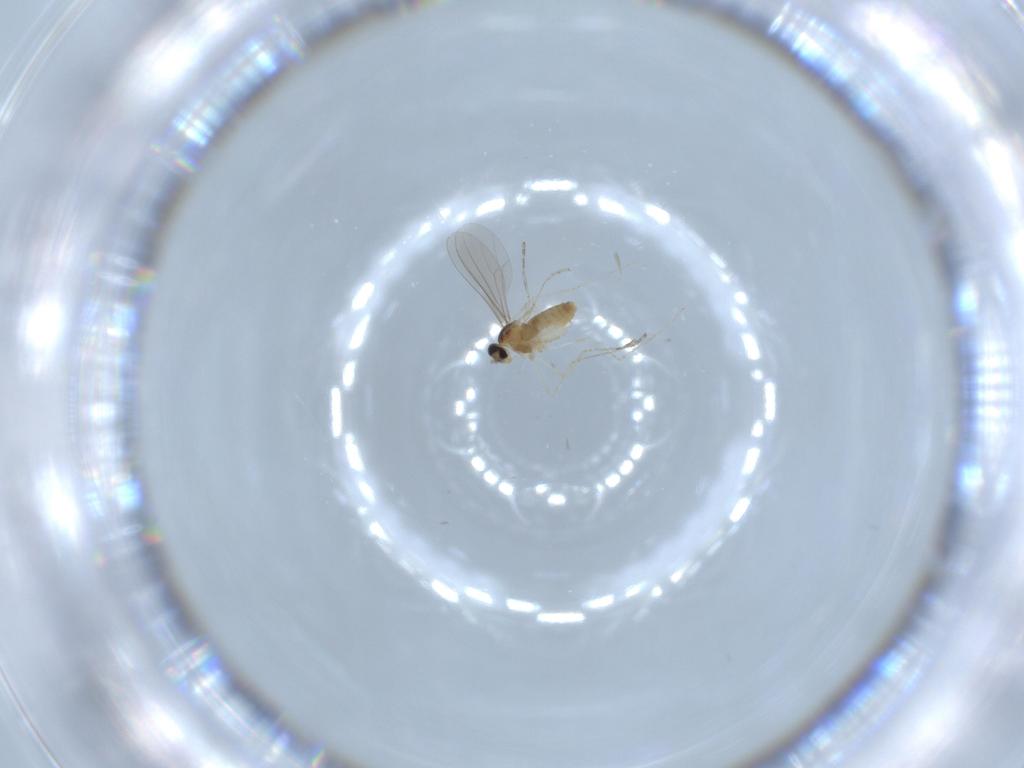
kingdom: Animalia
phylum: Arthropoda
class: Insecta
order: Diptera
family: Cecidomyiidae
